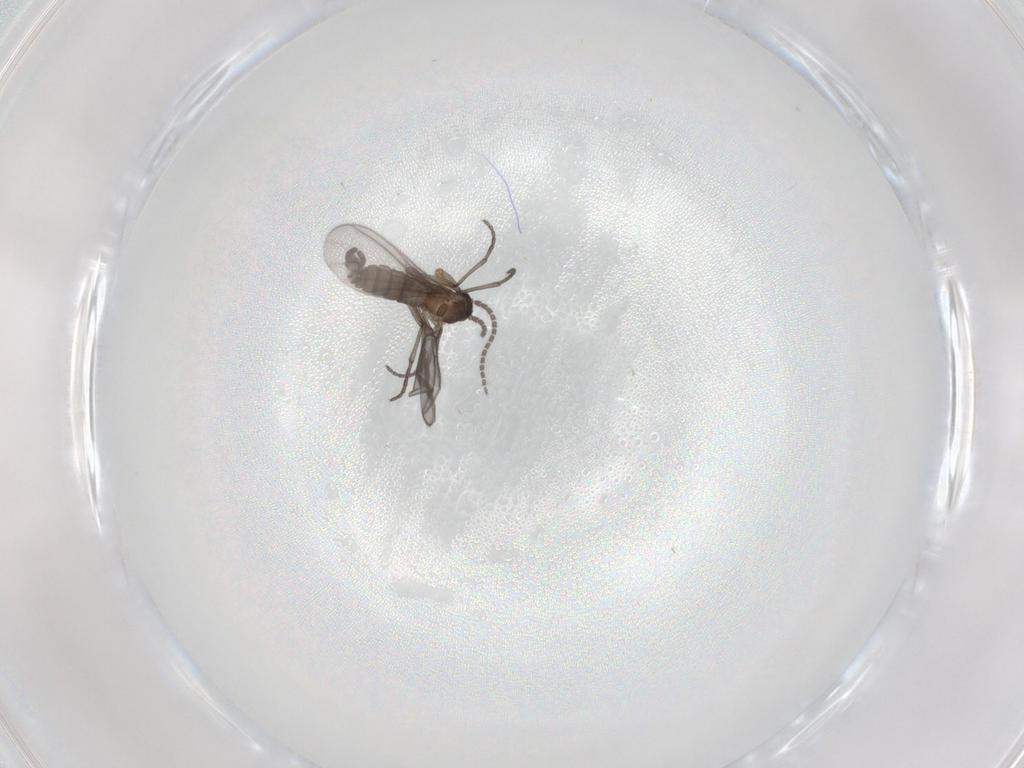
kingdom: Animalia
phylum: Arthropoda
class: Insecta
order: Diptera
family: Sciaridae
